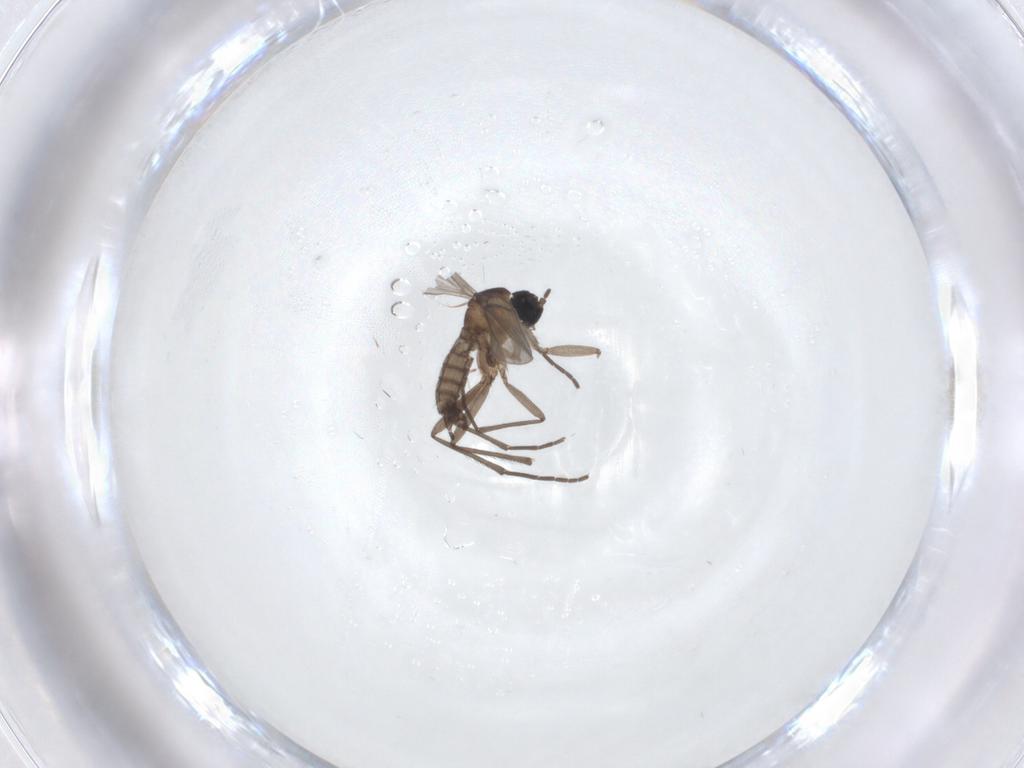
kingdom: Animalia
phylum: Arthropoda
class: Insecta
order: Diptera
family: Sciaridae
